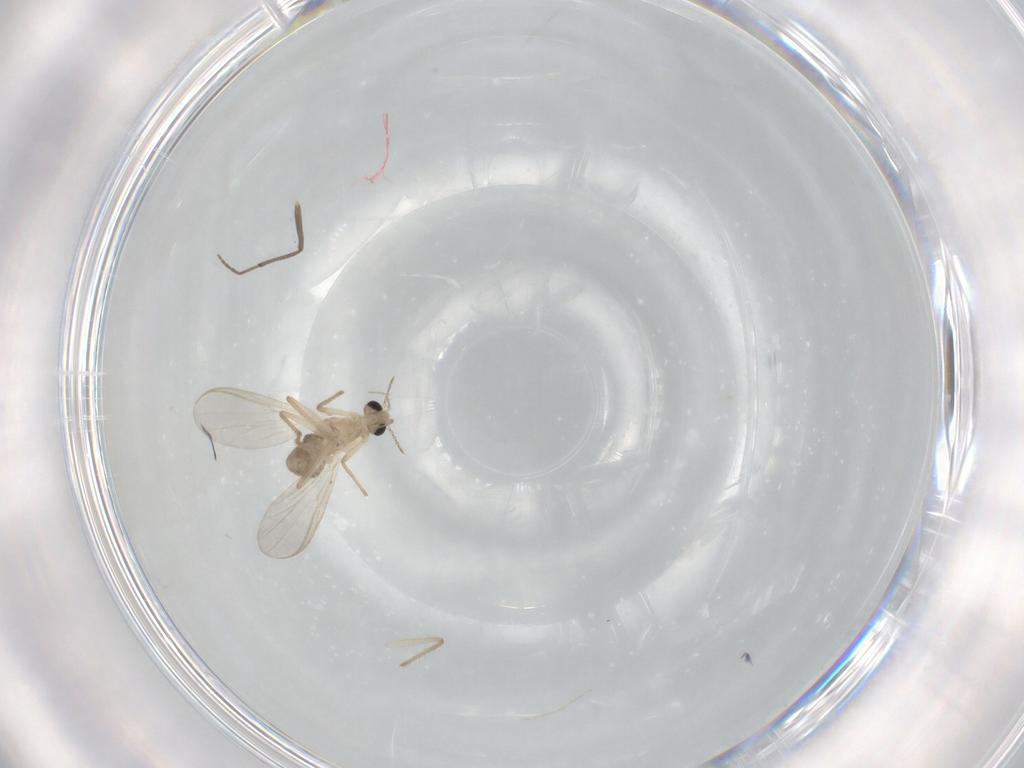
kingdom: Animalia
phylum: Arthropoda
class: Insecta
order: Diptera
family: Chironomidae
